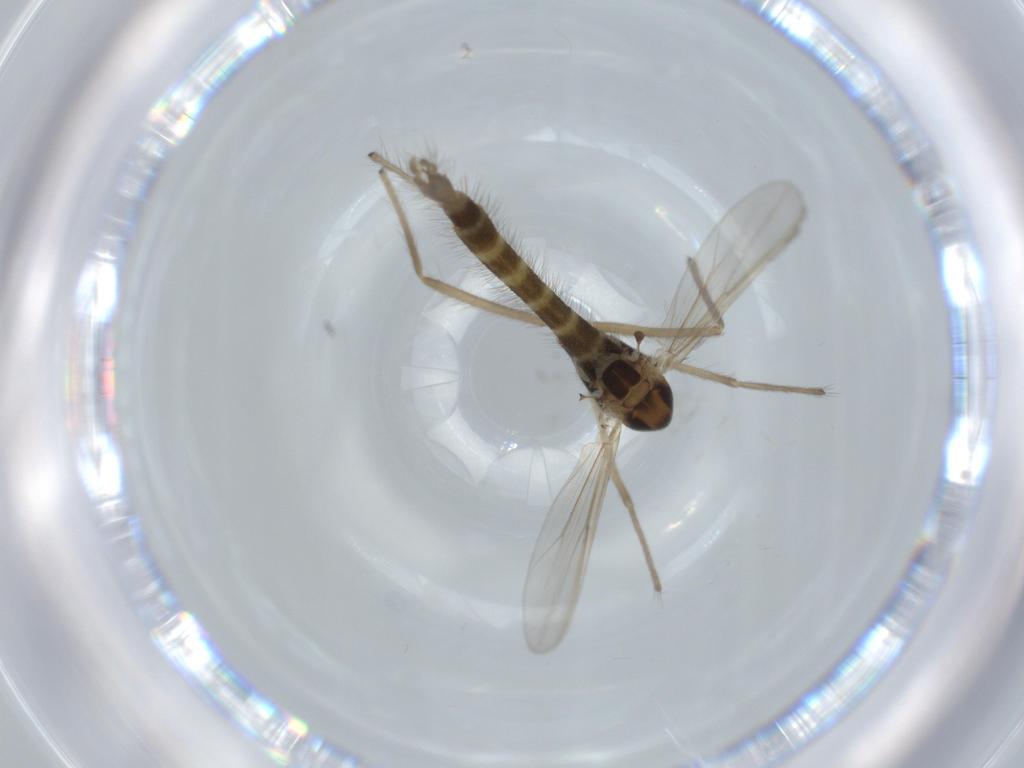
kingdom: Animalia
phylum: Arthropoda
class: Insecta
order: Diptera
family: Chironomidae
